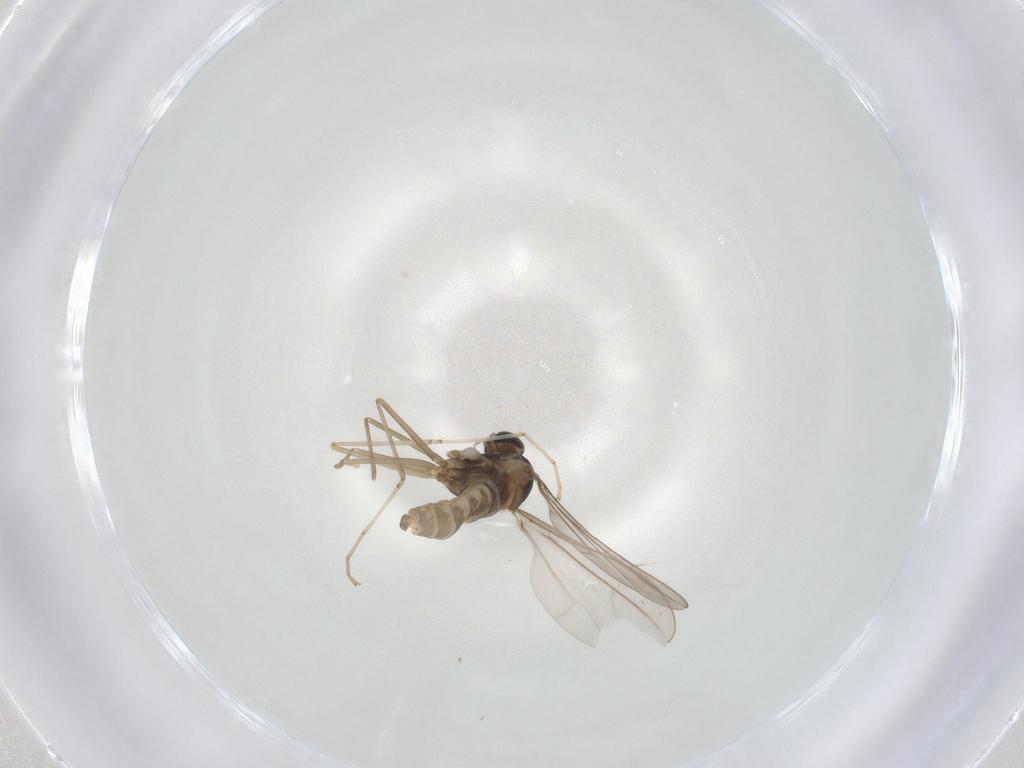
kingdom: Animalia
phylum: Arthropoda
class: Insecta
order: Diptera
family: Cecidomyiidae
